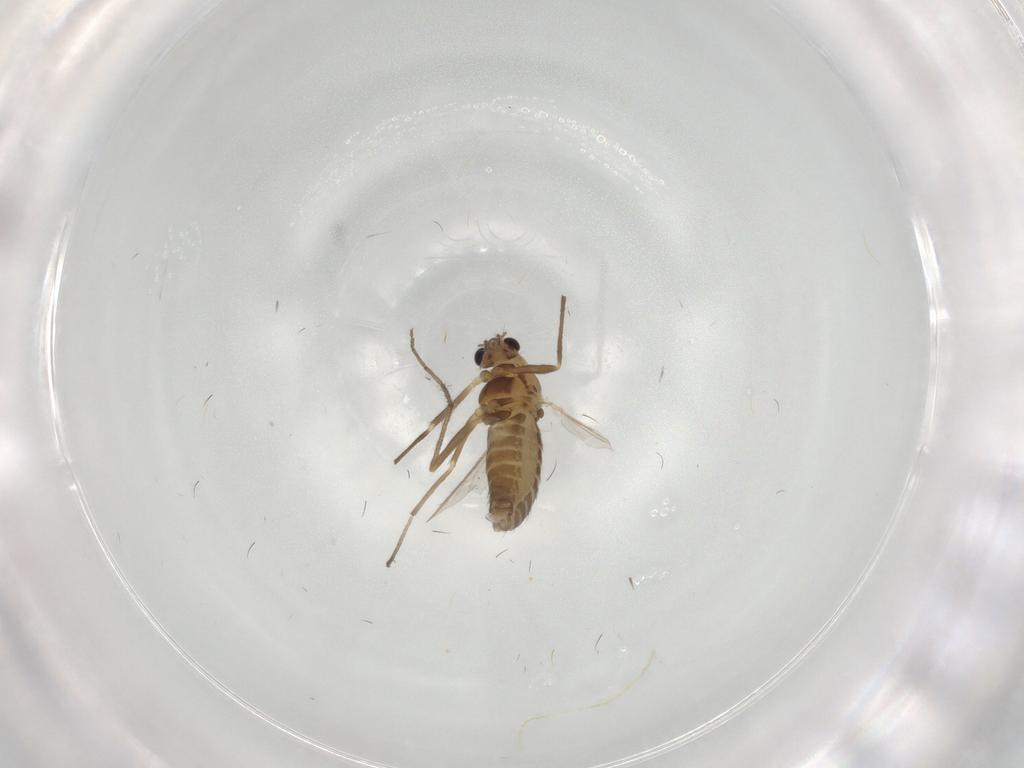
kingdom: Animalia
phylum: Arthropoda
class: Insecta
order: Diptera
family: Chironomidae
